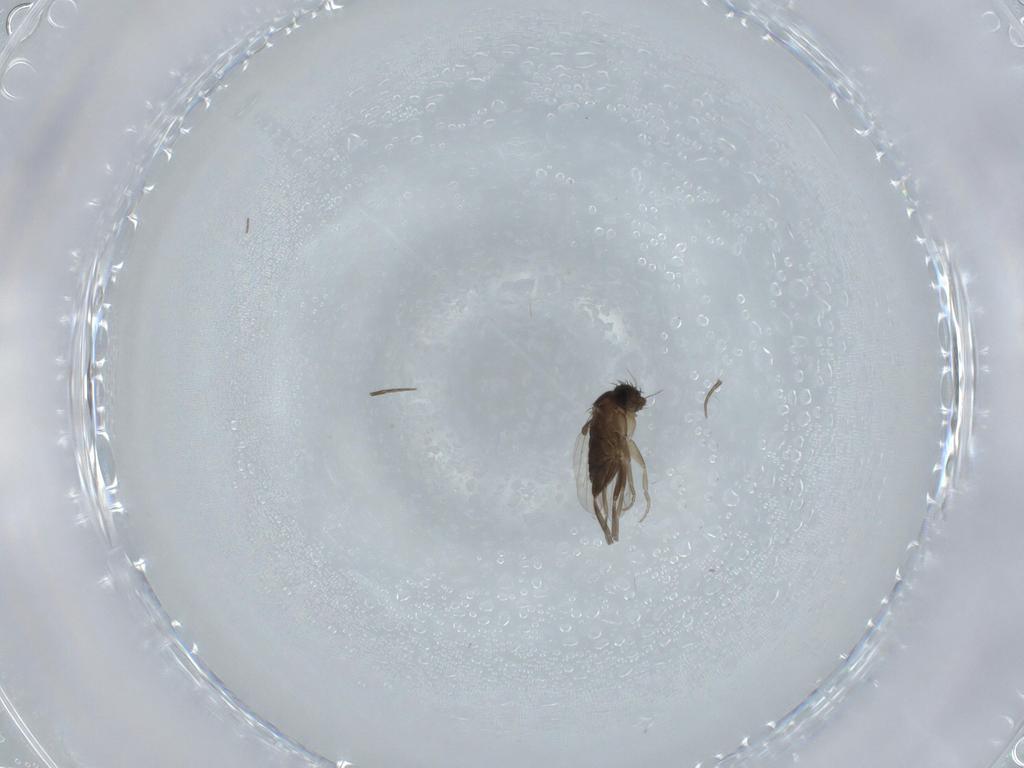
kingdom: Animalia
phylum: Arthropoda
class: Insecta
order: Diptera
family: Phoridae
